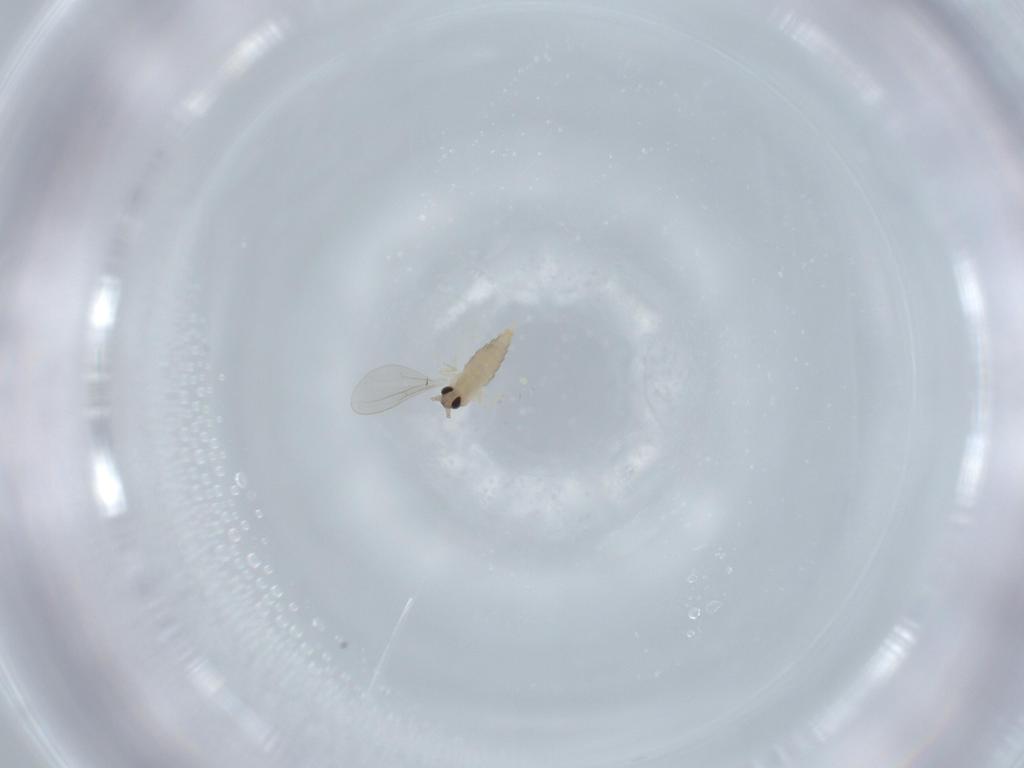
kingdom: Animalia
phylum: Arthropoda
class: Insecta
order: Diptera
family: Cecidomyiidae
